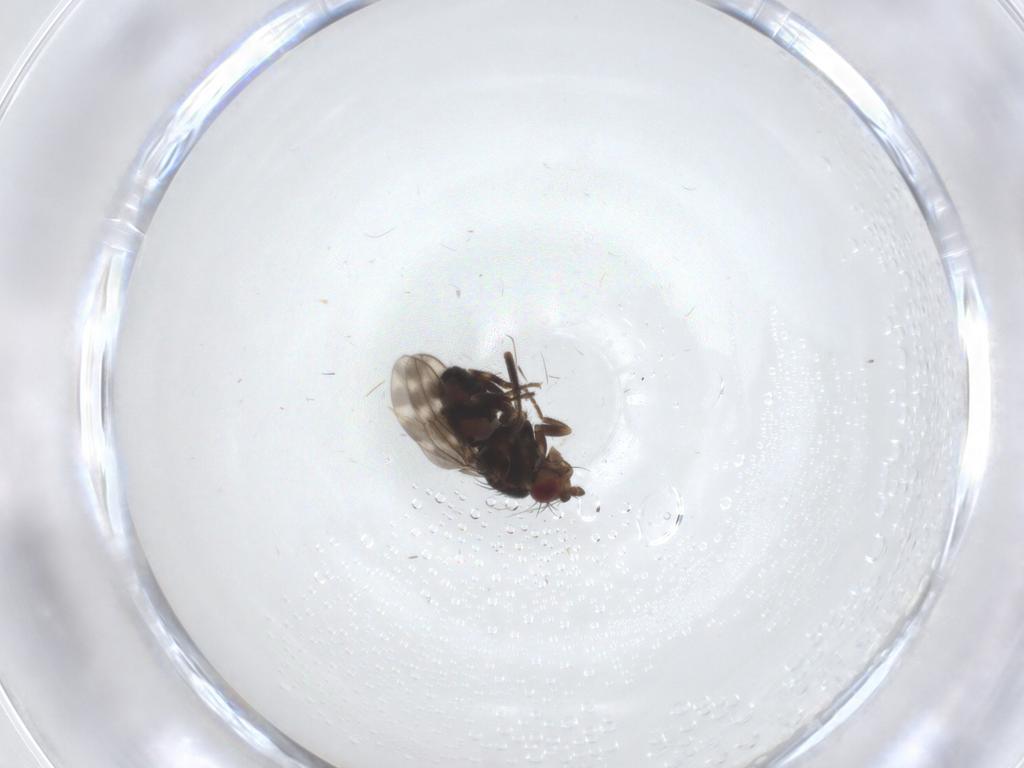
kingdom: Animalia
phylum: Arthropoda
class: Insecta
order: Diptera
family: Sphaeroceridae
